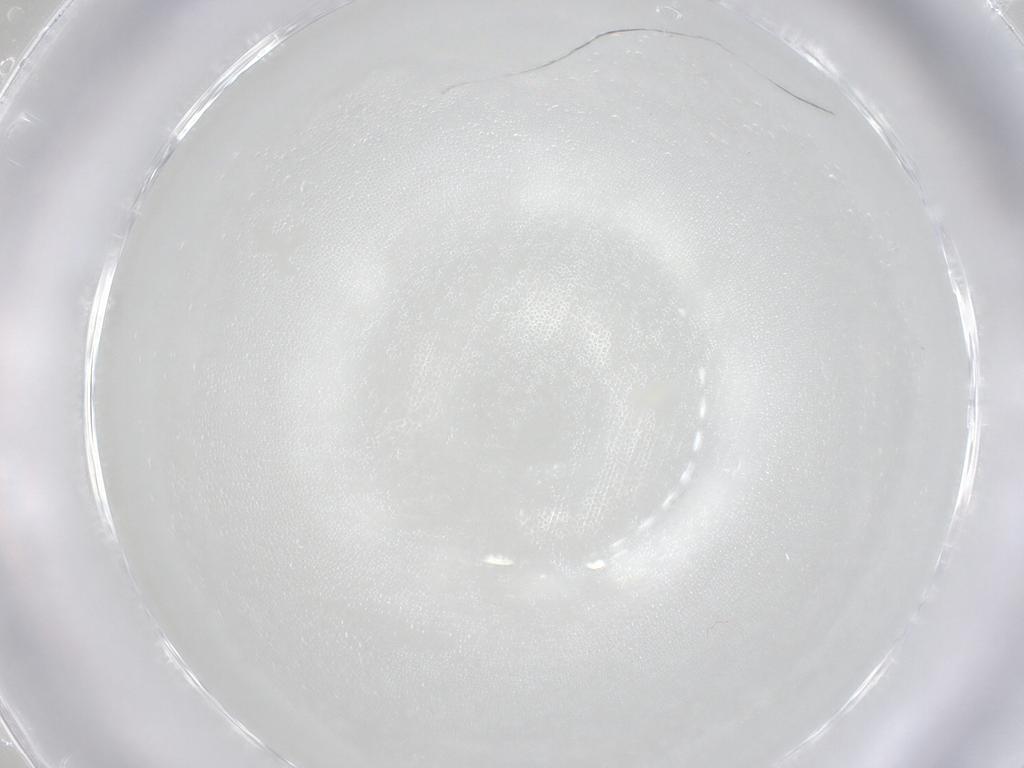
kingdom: Animalia
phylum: Arthropoda
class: Arachnida
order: Trombidiformes
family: Eupodidae
